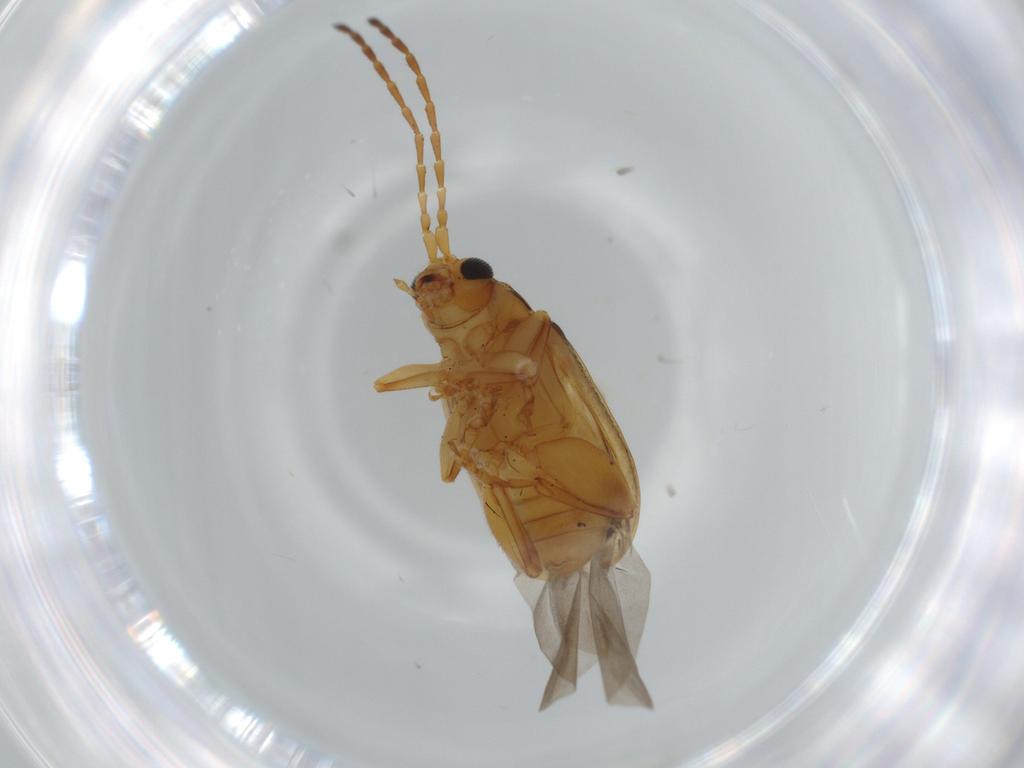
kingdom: Animalia
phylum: Arthropoda
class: Insecta
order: Coleoptera
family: Chrysomelidae
